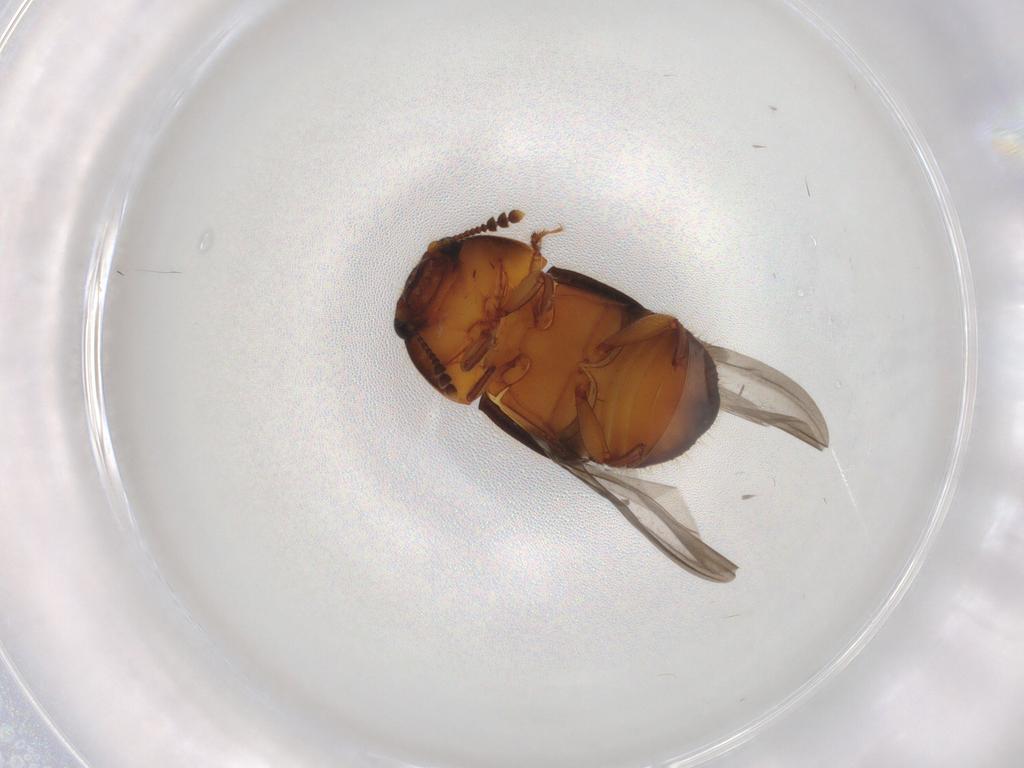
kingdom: Animalia
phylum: Arthropoda
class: Insecta
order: Coleoptera
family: Nitidulidae
